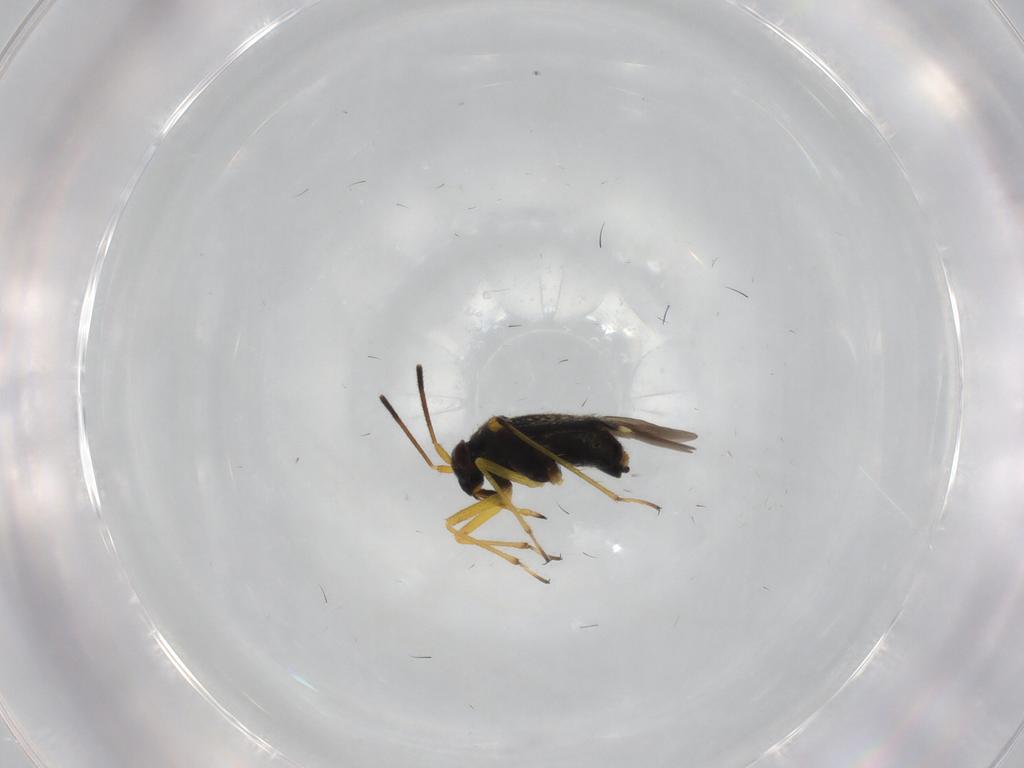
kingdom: Animalia
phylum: Arthropoda
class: Insecta
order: Hemiptera
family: Miridae
